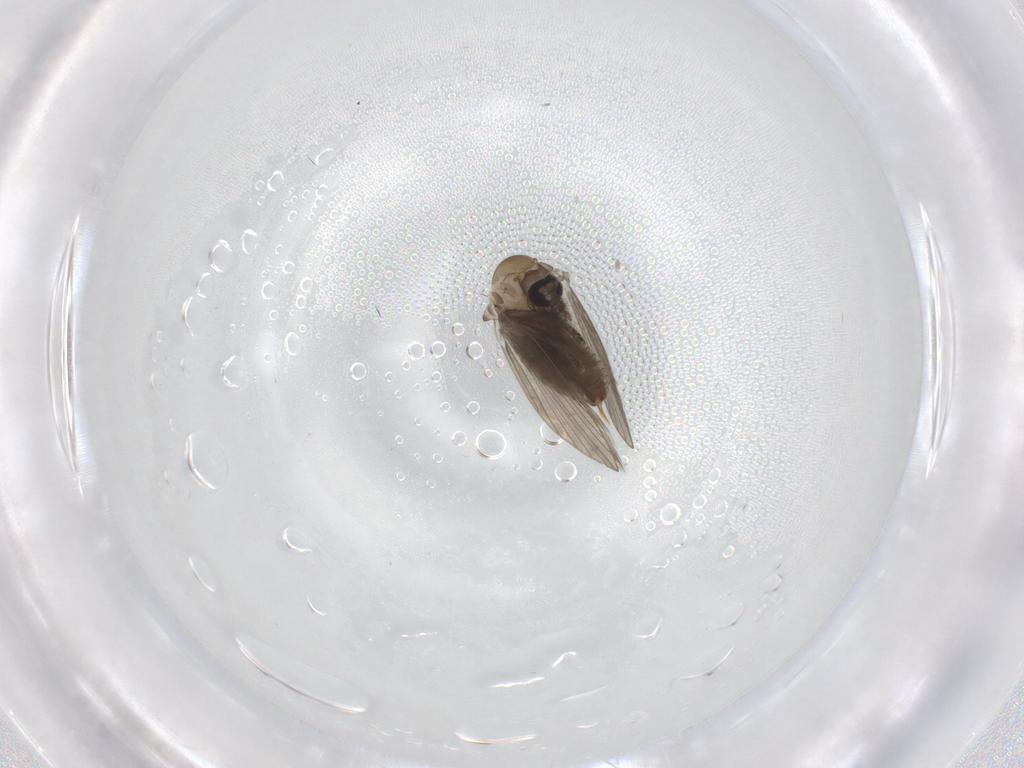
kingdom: Animalia
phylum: Arthropoda
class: Insecta
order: Diptera
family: Psychodidae
